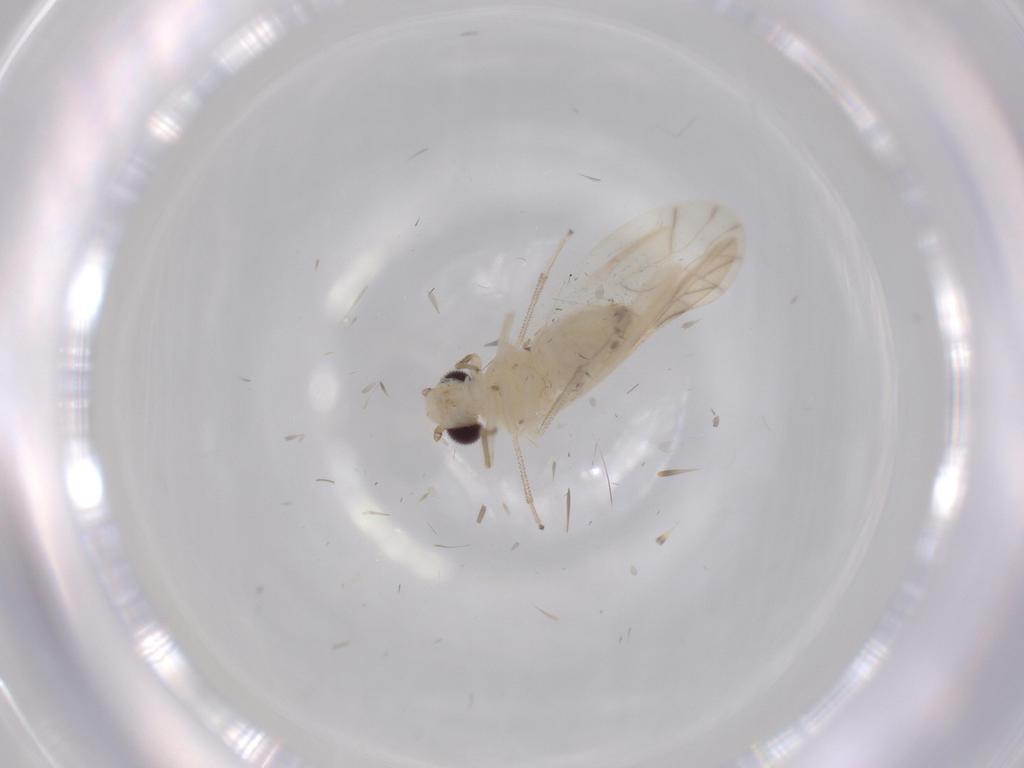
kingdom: Animalia
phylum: Arthropoda
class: Insecta
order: Psocodea
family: Caeciliusidae
